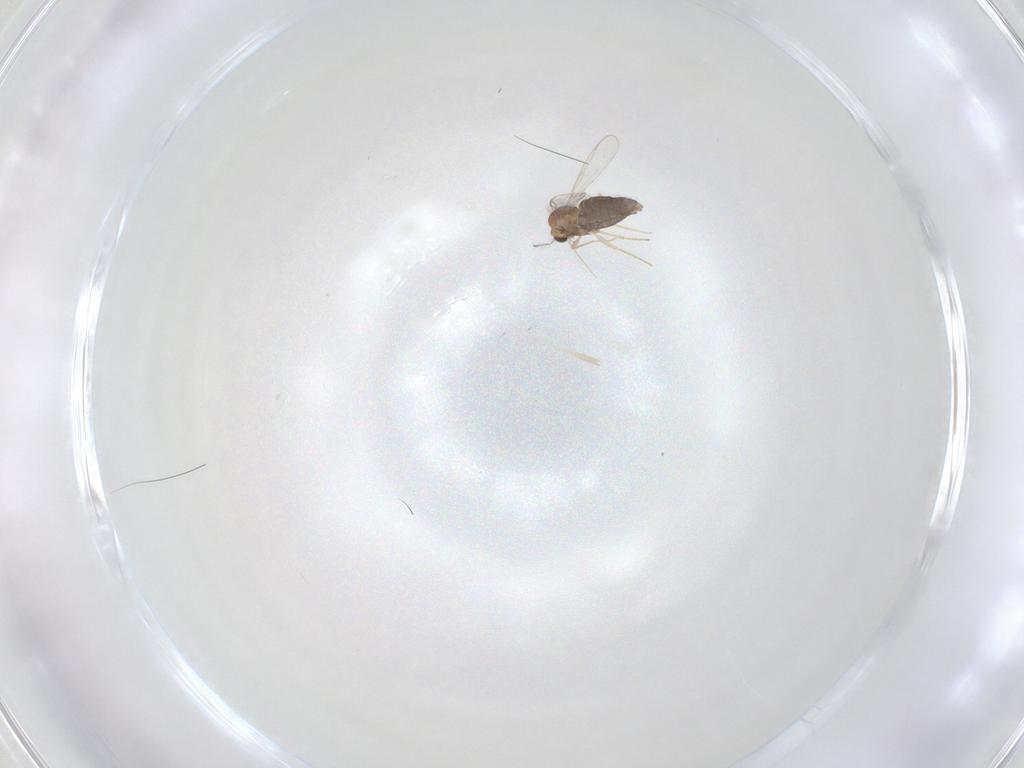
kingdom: Animalia
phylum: Arthropoda
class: Insecta
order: Diptera
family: Chironomidae
